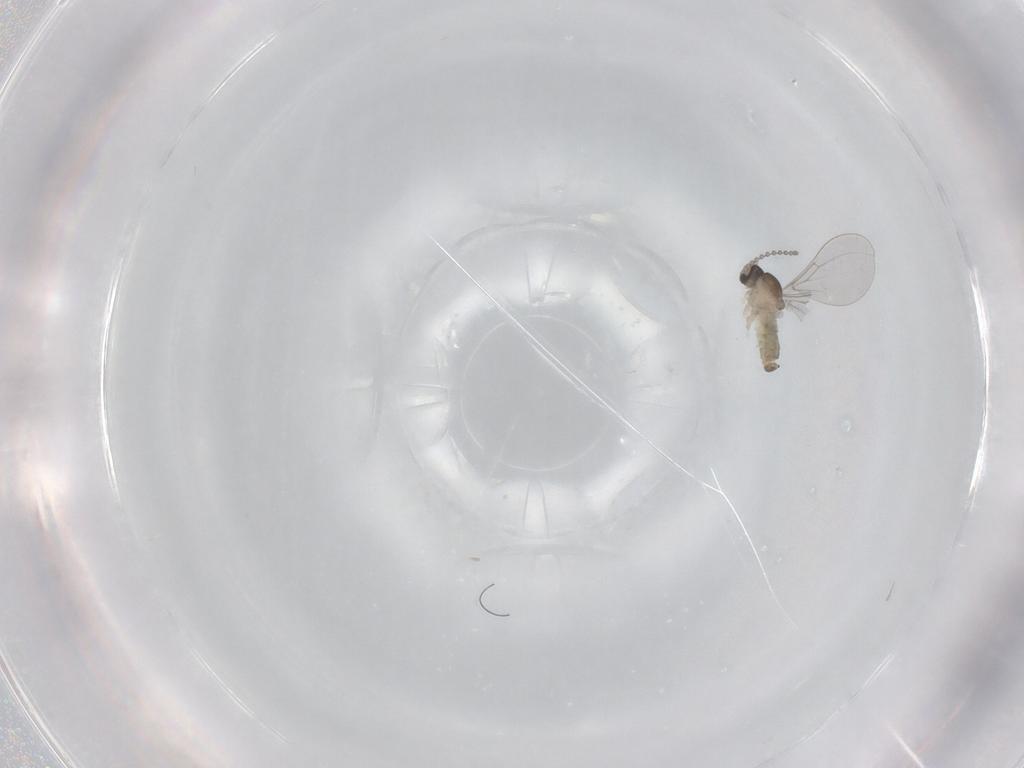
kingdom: Animalia
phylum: Arthropoda
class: Insecta
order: Diptera
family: Cecidomyiidae
